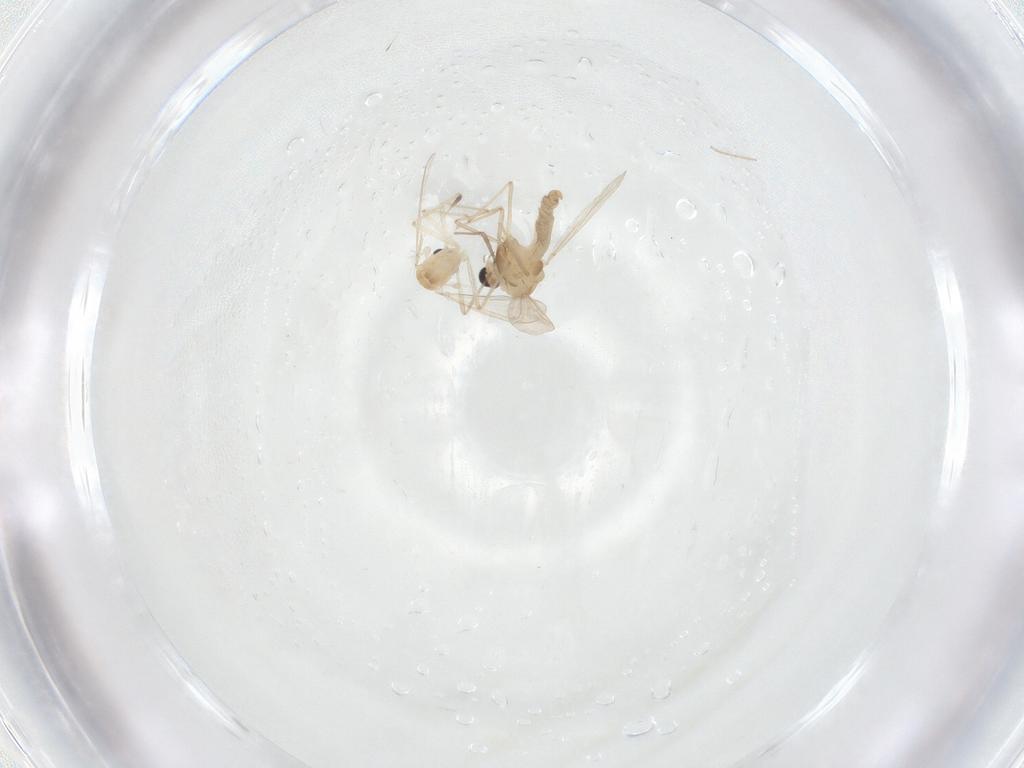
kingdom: Animalia
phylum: Arthropoda
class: Insecta
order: Diptera
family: Chironomidae
